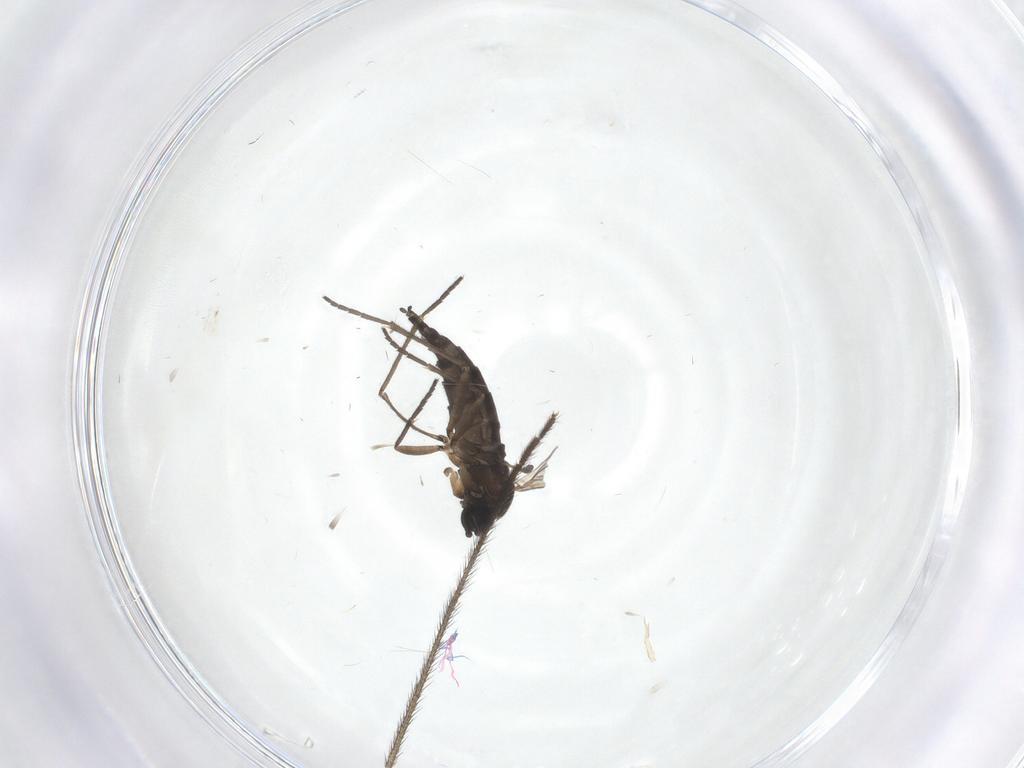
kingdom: Animalia
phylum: Arthropoda
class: Insecta
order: Diptera
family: Sciaridae
